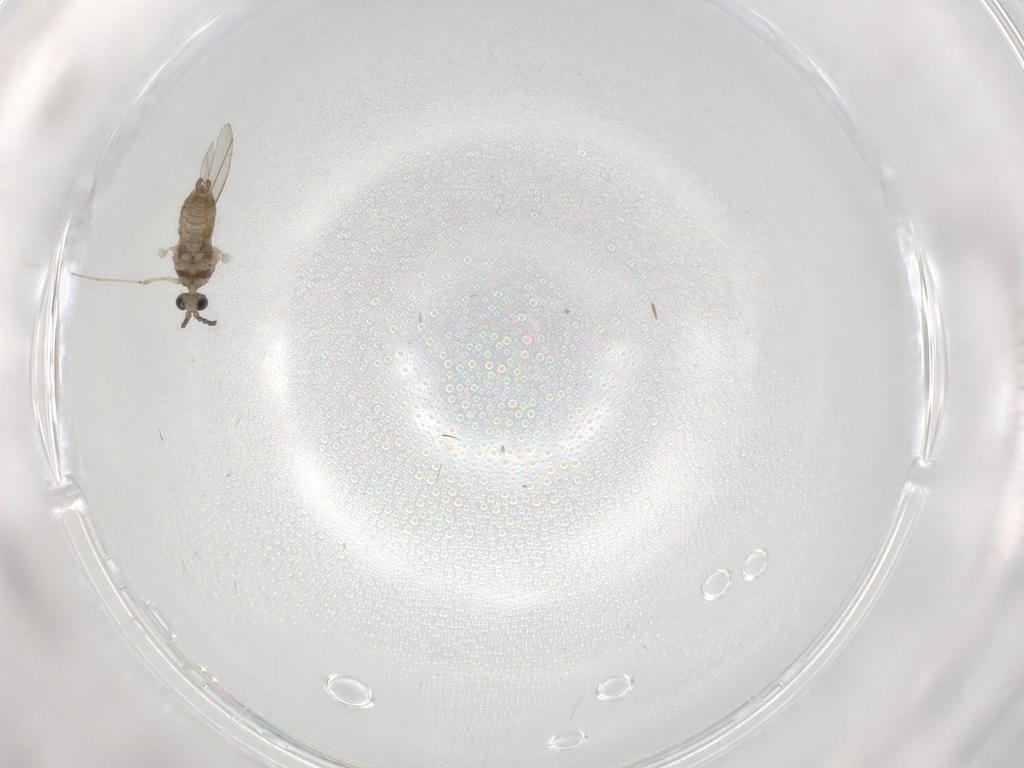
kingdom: Animalia
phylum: Arthropoda
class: Insecta
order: Diptera
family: Cecidomyiidae
